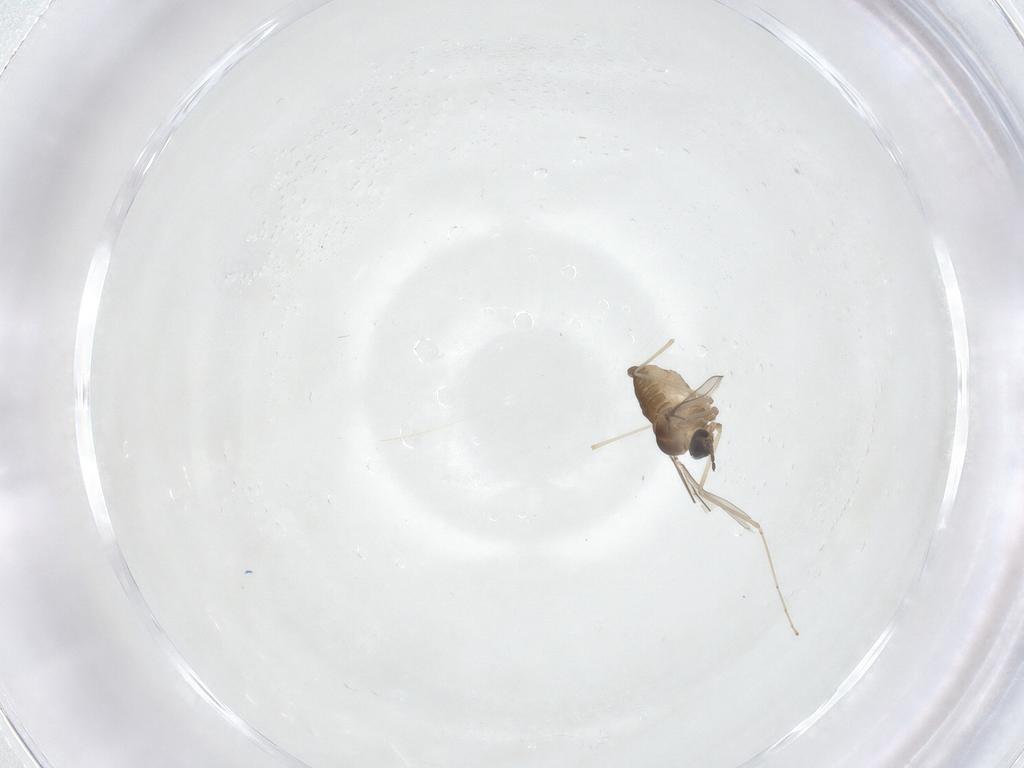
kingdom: Animalia
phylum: Arthropoda
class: Insecta
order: Diptera
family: Cecidomyiidae
